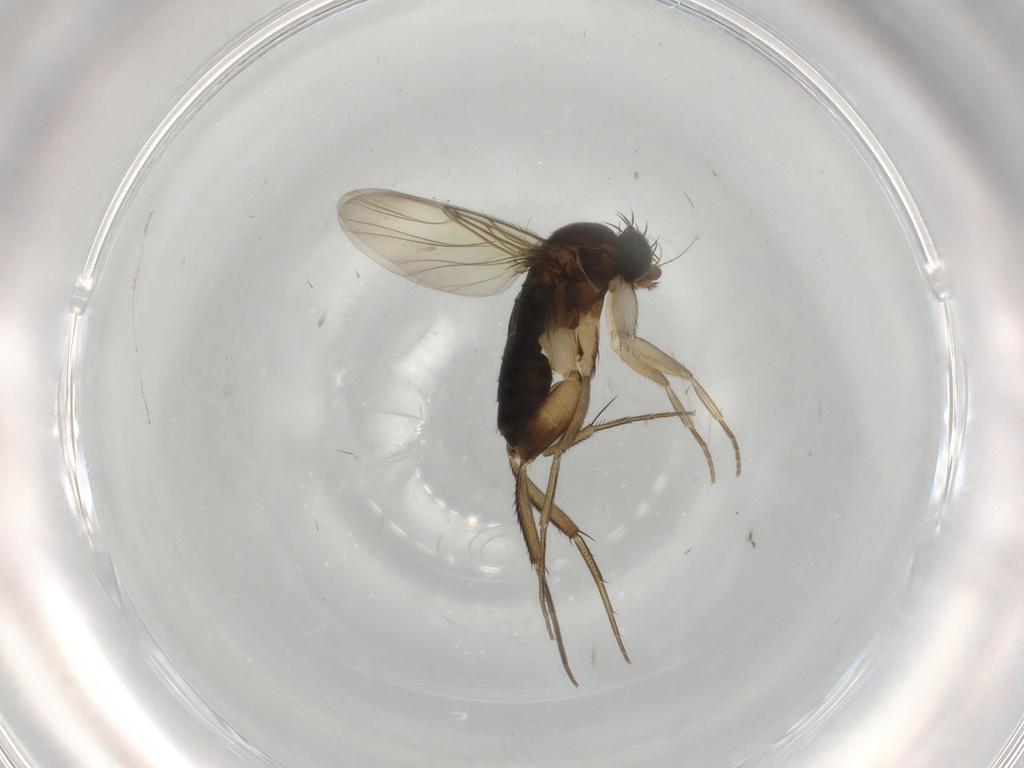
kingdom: Animalia
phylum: Arthropoda
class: Insecta
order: Diptera
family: Phoridae
